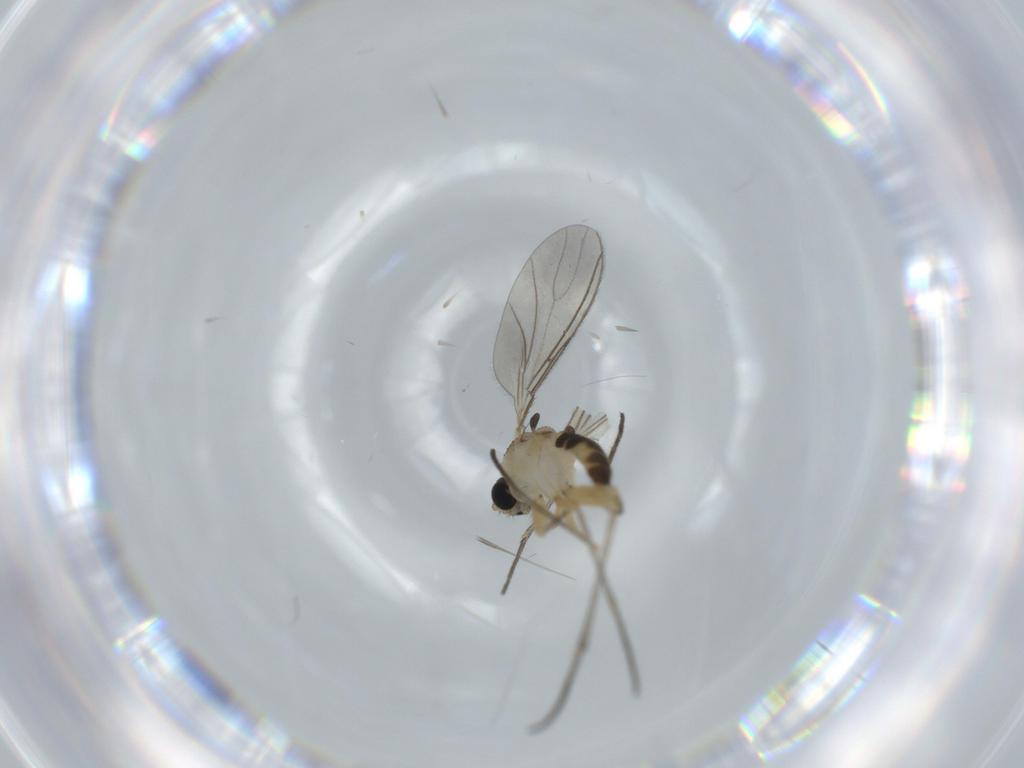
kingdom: Animalia
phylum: Arthropoda
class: Insecta
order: Diptera
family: Sciaridae
